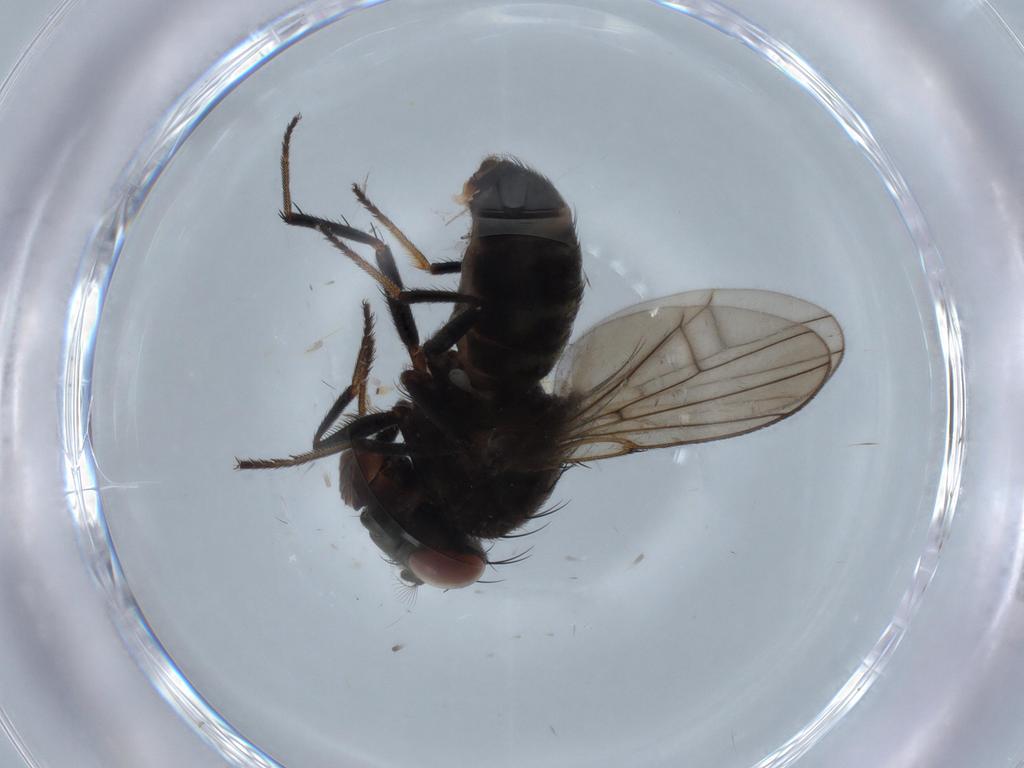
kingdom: Animalia
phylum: Arthropoda
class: Insecta
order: Diptera
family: Ephydridae
